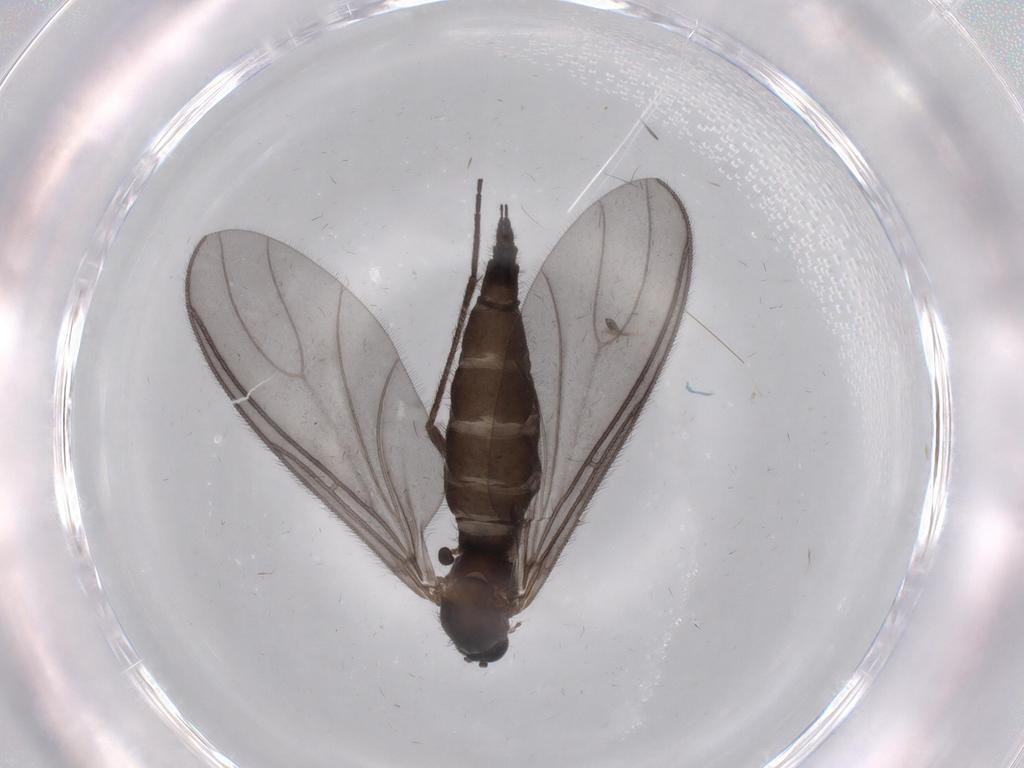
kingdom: Animalia
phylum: Arthropoda
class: Insecta
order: Diptera
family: Sciaridae
